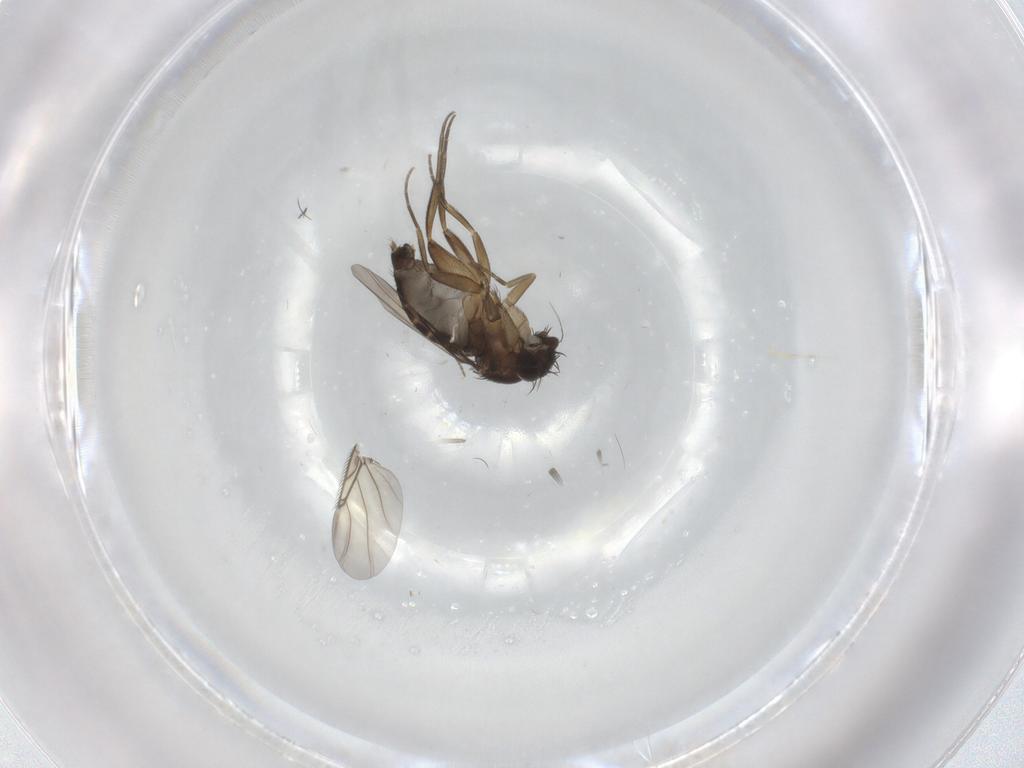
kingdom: Animalia
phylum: Arthropoda
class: Insecta
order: Diptera
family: Phoridae
